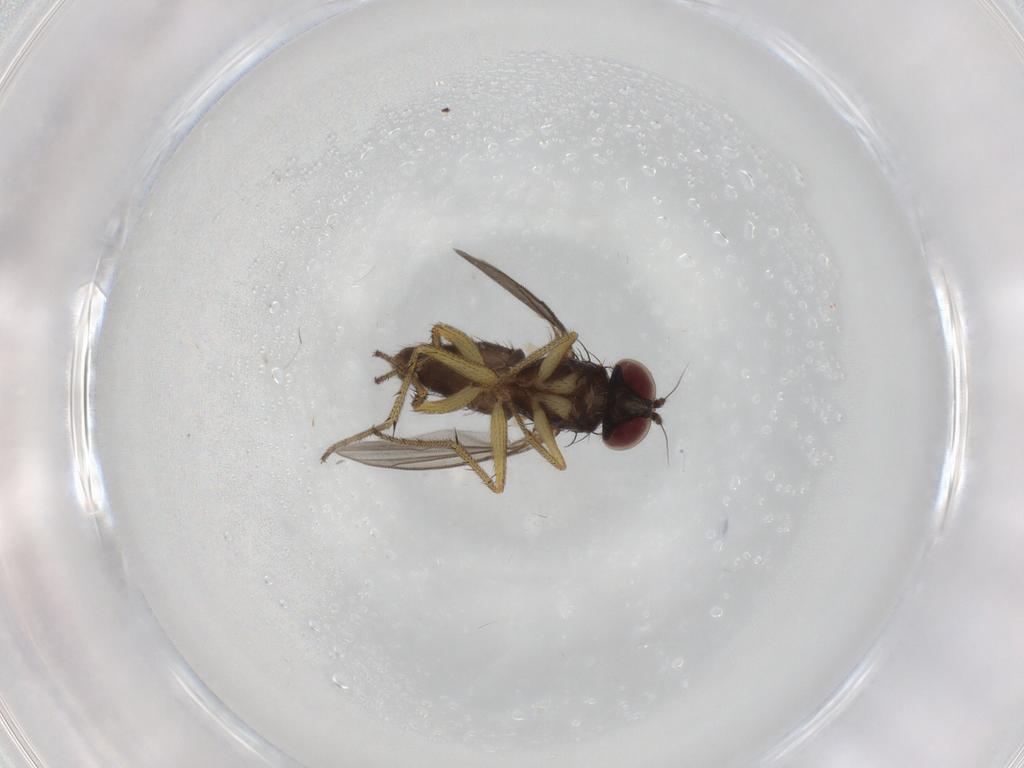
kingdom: Animalia
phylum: Arthropoda
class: Insecta
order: Diptera
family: Dolichopodidae
